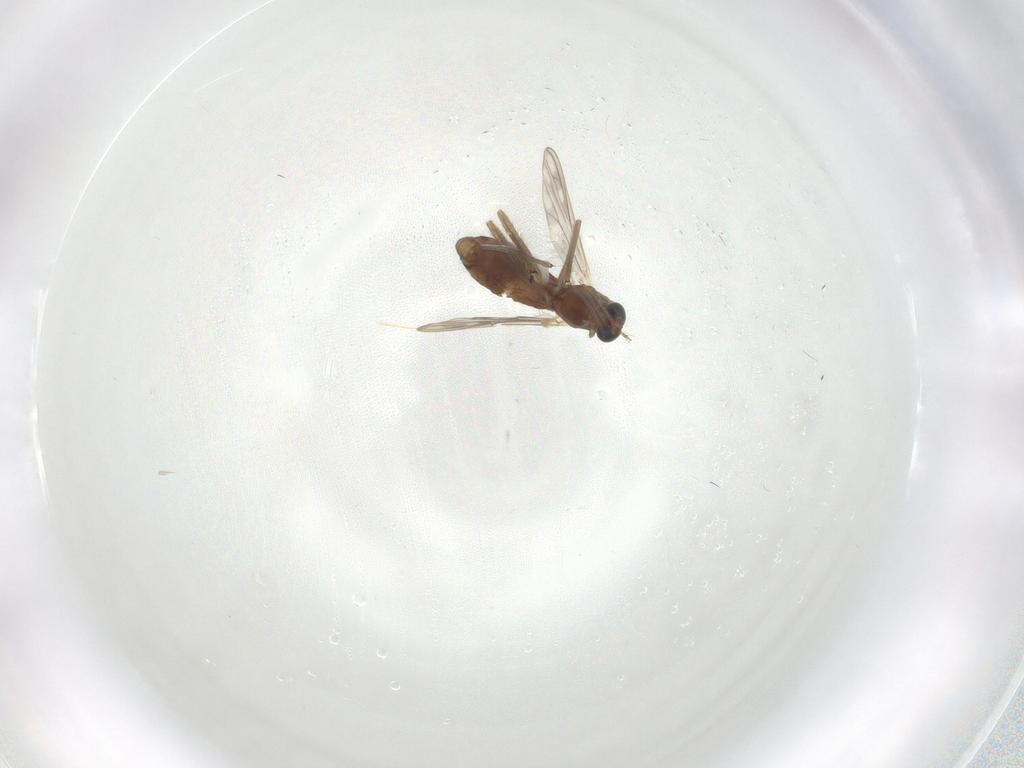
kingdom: Animalia
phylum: Arthropoda
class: Insecta
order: Diptera
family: Chironomidae
